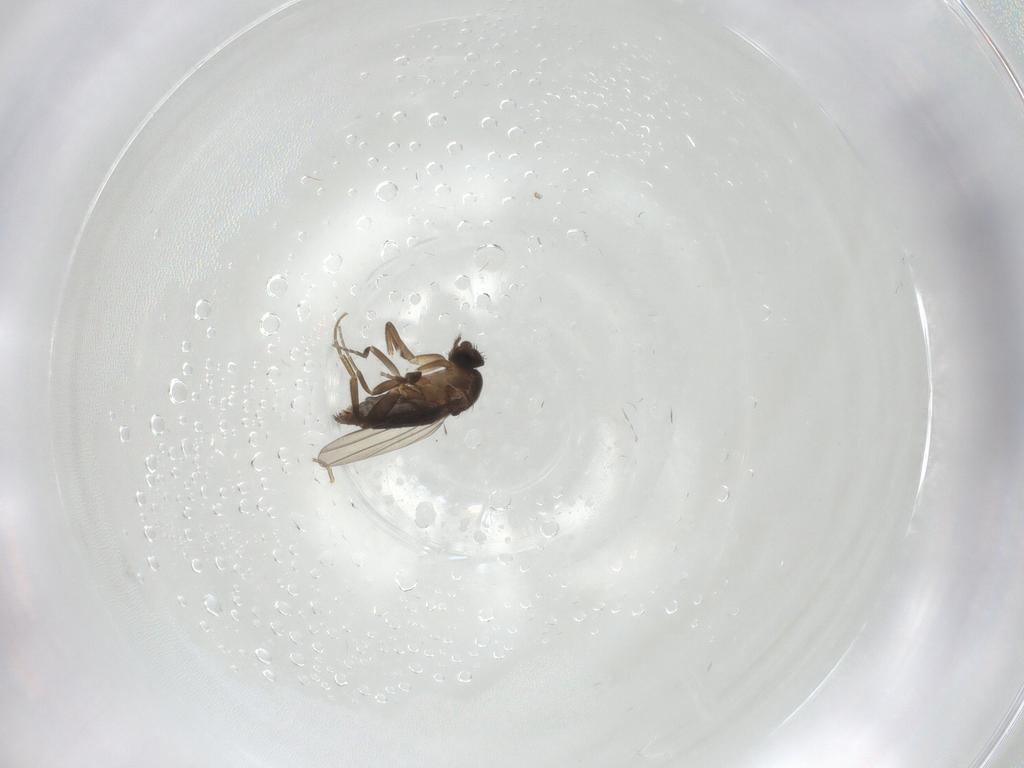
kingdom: Animalia
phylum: Arthropoda
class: Insecta
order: Diptera
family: Phoridae
